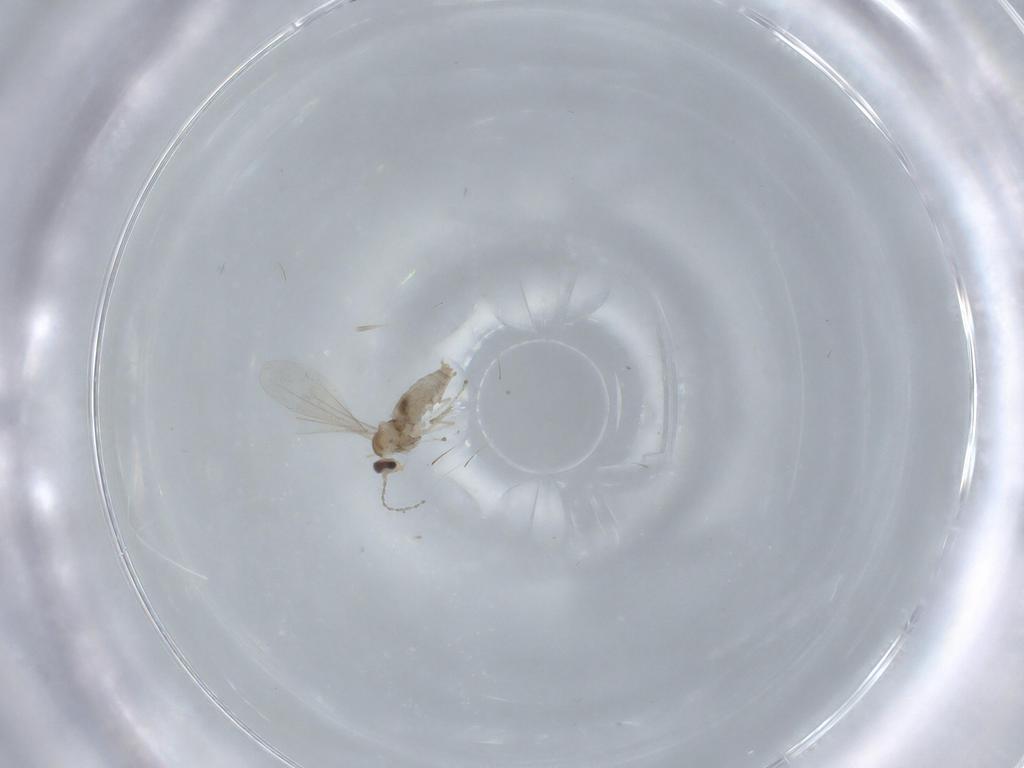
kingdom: Animalia
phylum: Arthropoda
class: Insecta
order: Diptera
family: Cecidomyiidae
